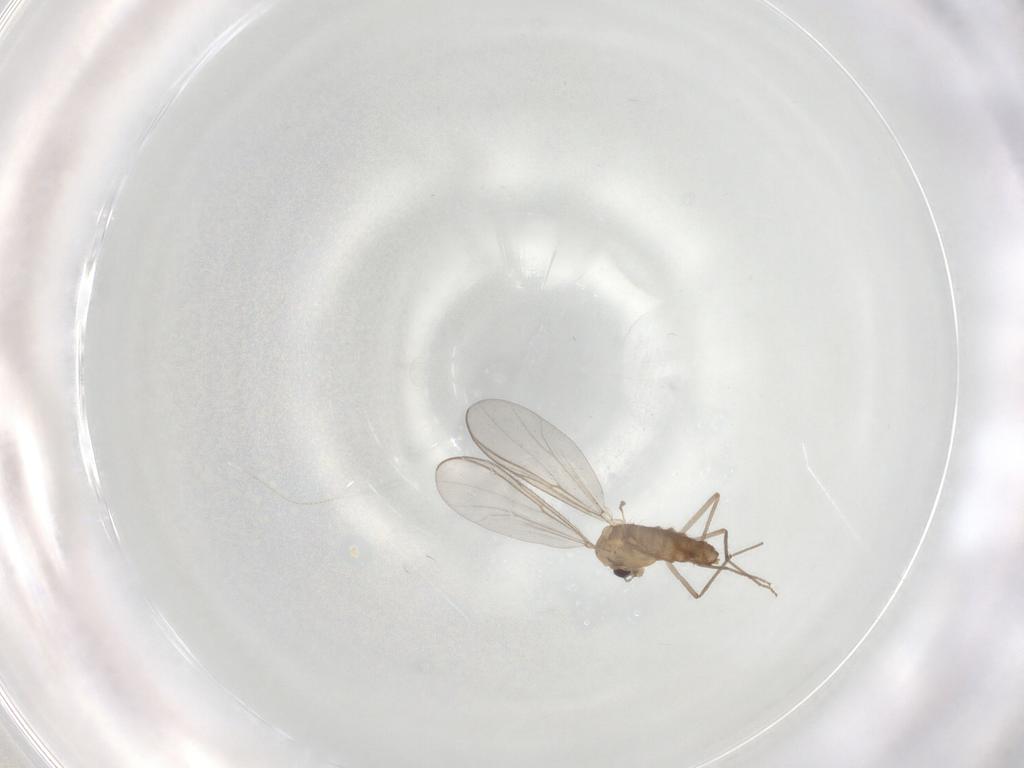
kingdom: Animalia
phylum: Arthropoda
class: Insecta
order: Diptera
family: Chironomidae
